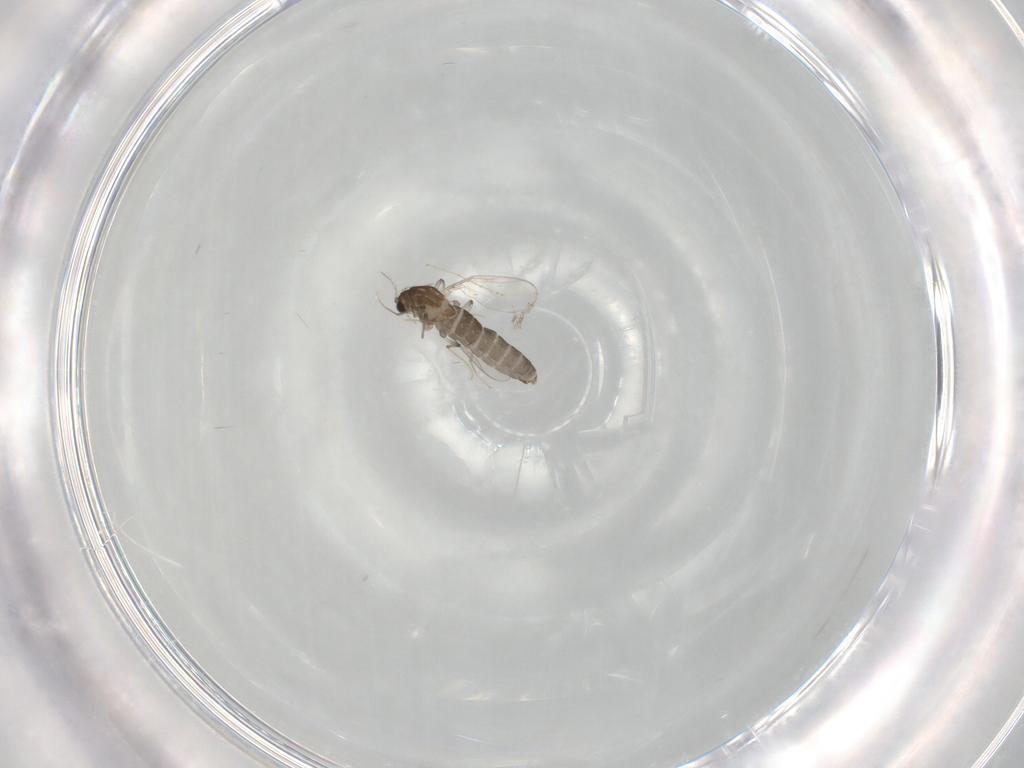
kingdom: Animalia
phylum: Arthropoda
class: Insecta
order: Diptera
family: Chironomidae
